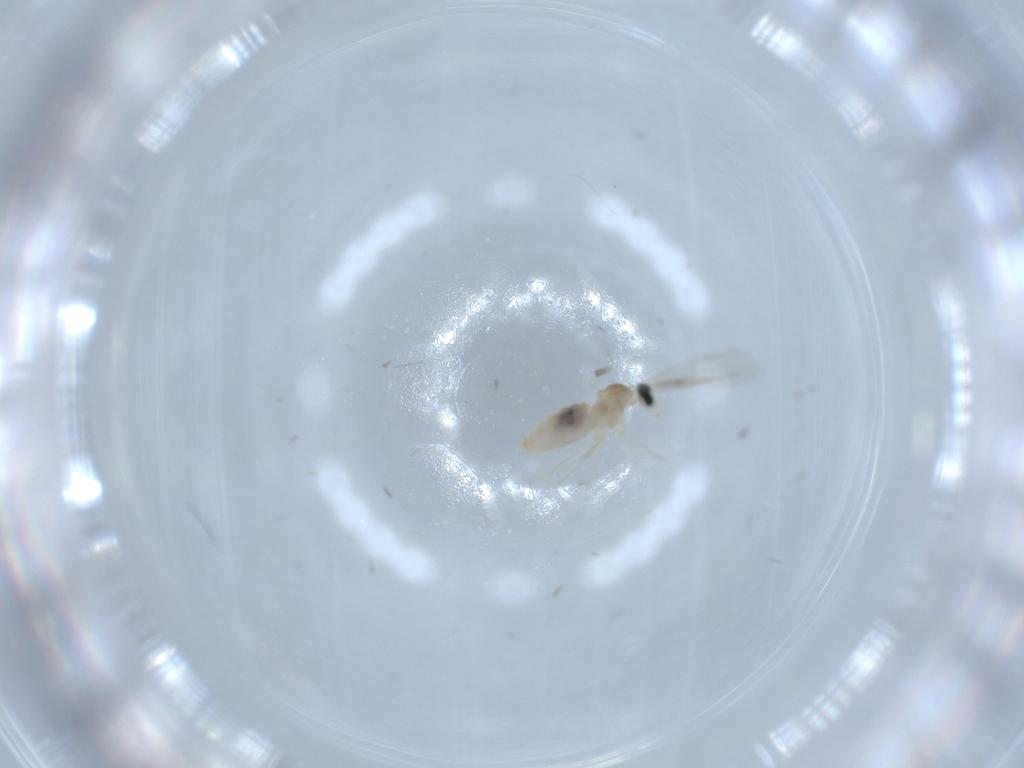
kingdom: Animalia
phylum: Arthropoda
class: Insecta
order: Diptera
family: Cecidomyiidae
